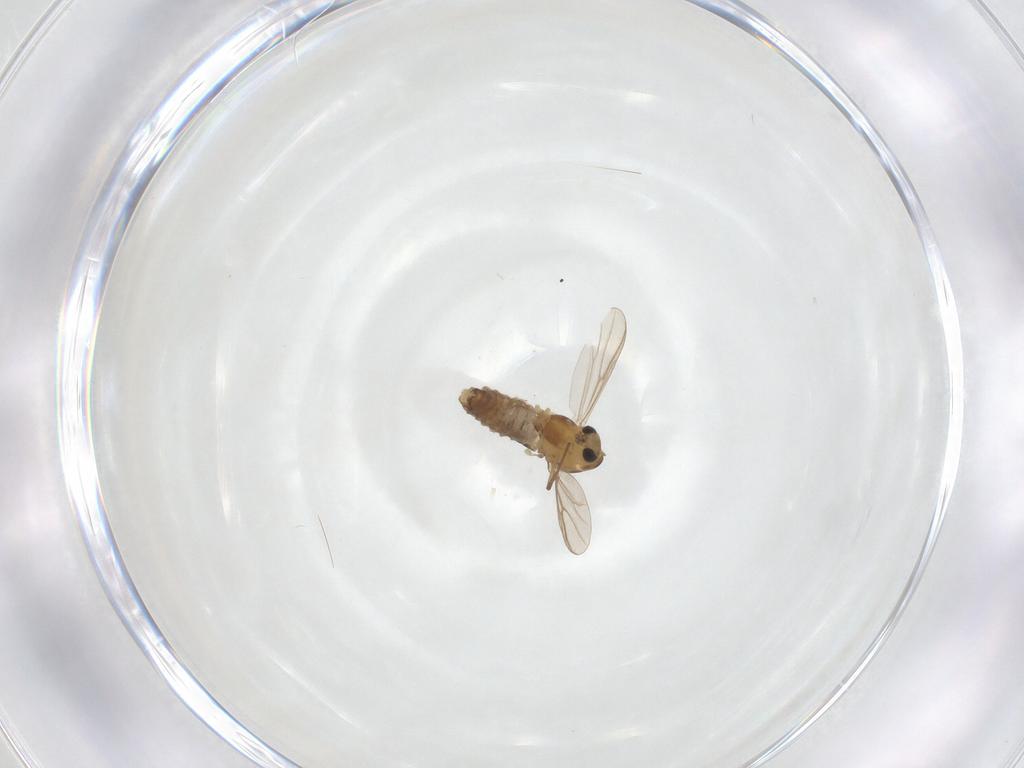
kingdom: Animalia
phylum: Arthropoda
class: Insecta
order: Diptera
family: Chironomidae
